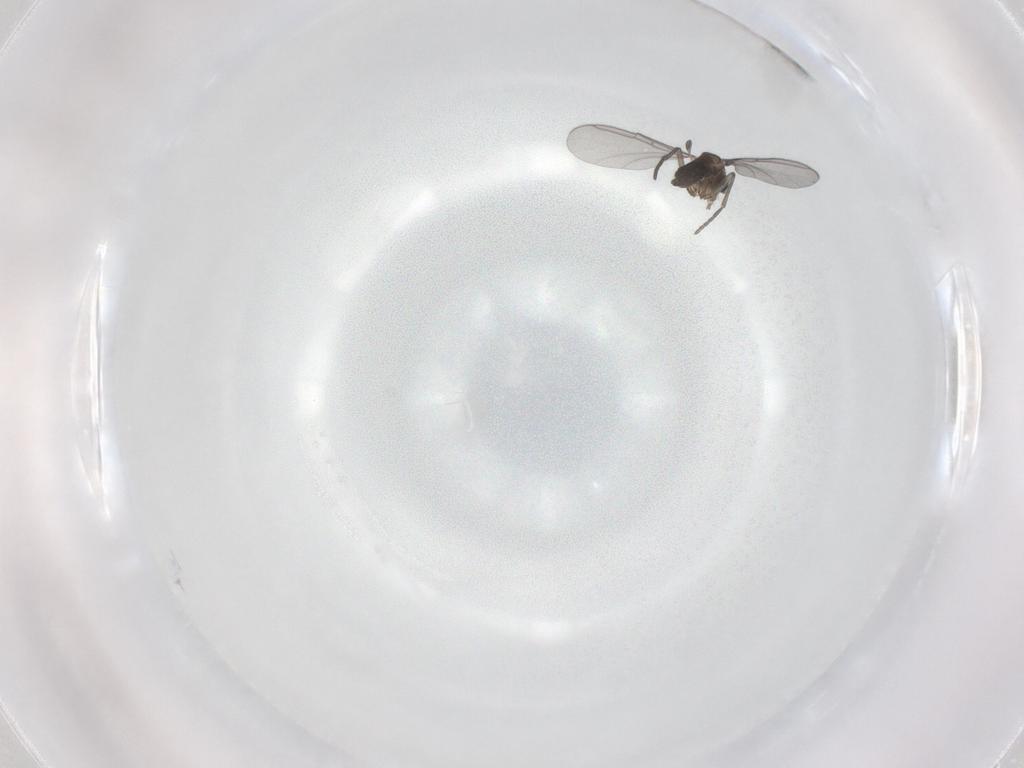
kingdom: Animalia
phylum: Arthropoda
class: Insecta
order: Diptera
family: Sciaridae
